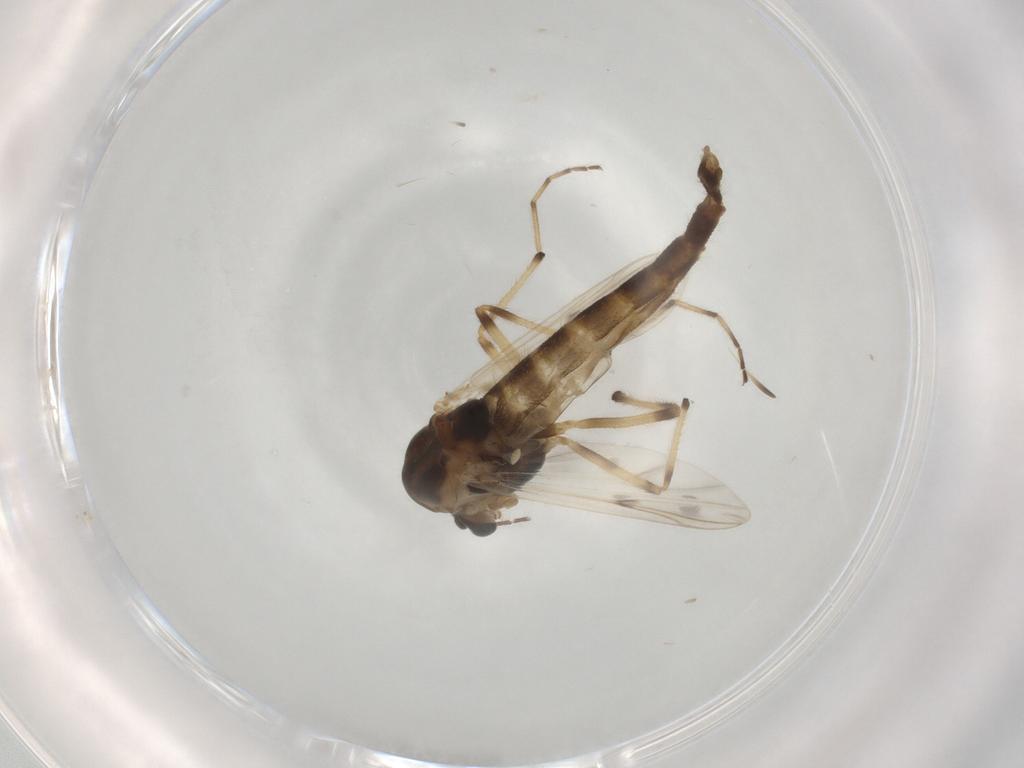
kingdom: Animalia
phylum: Arthropoda
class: Insecta
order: Diptera
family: Chironomidae
